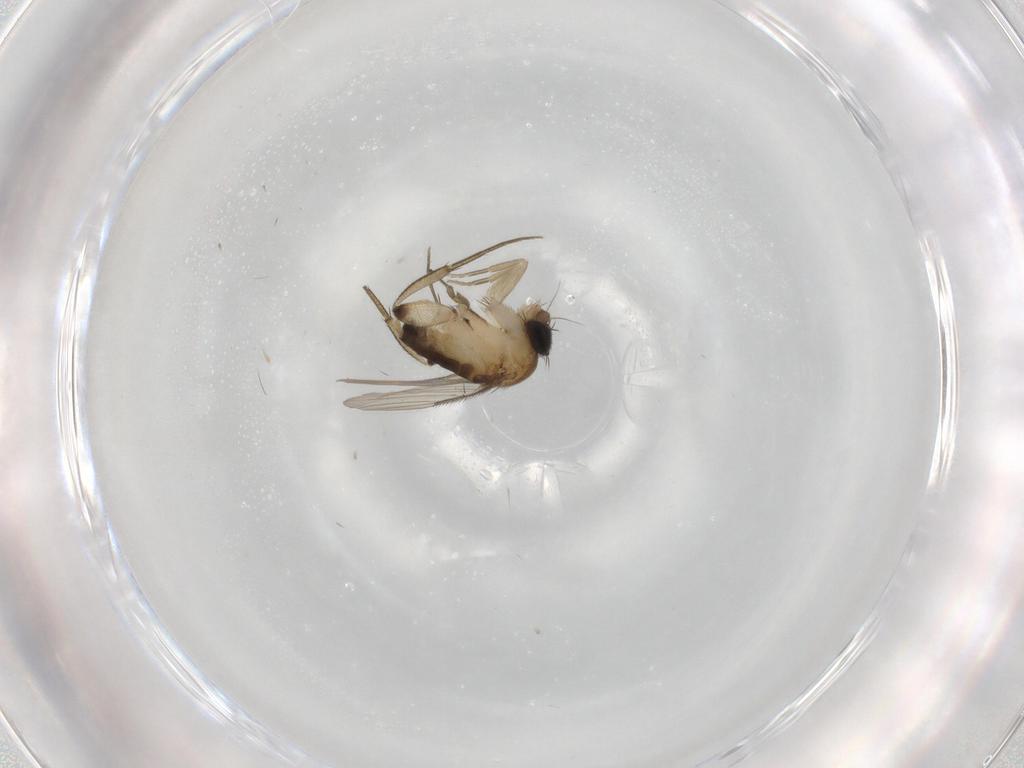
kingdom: Animalia
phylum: Arthropoda
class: Insecta
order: Diptera
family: Phoridae
